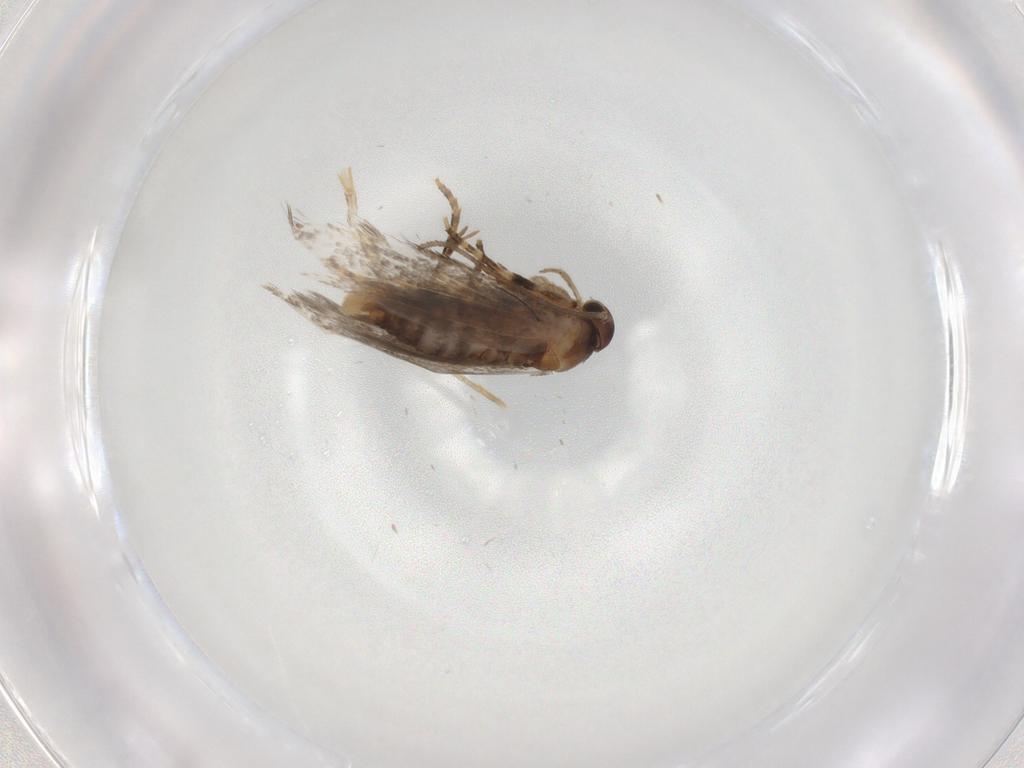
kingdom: Animalia
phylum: Arthropoda
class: Insecta
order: Lepidoptera
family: Elachistidae
